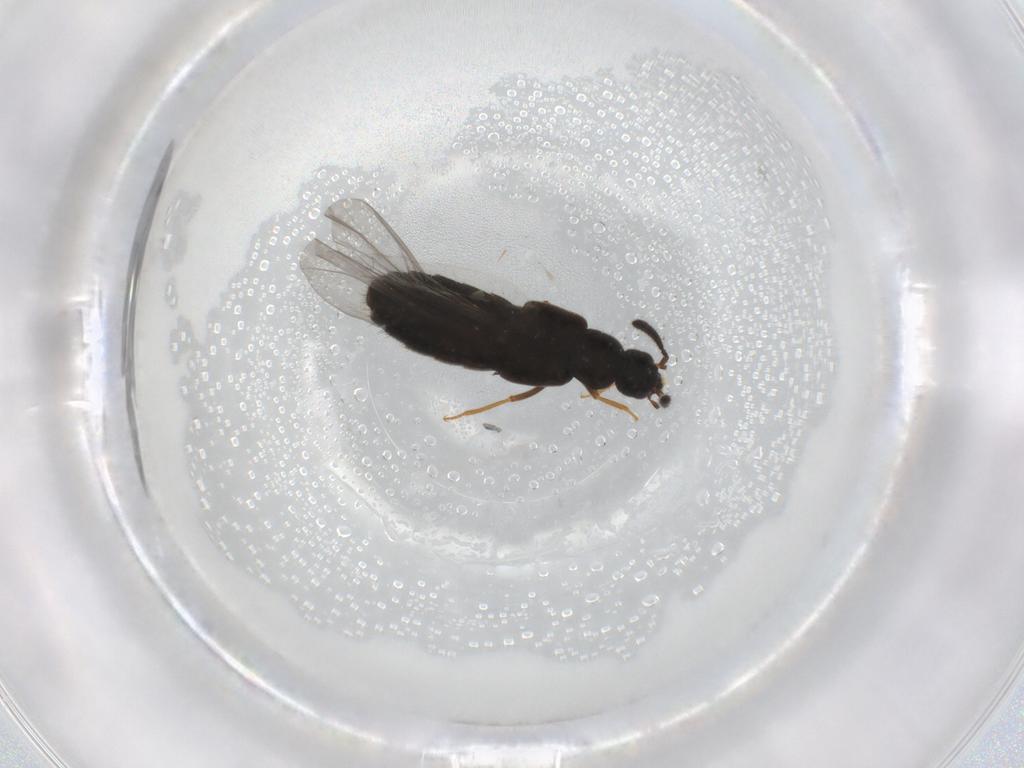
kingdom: Animalia
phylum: Arthropoda
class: Insecta
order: Coleoptera
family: Staphylinidae
